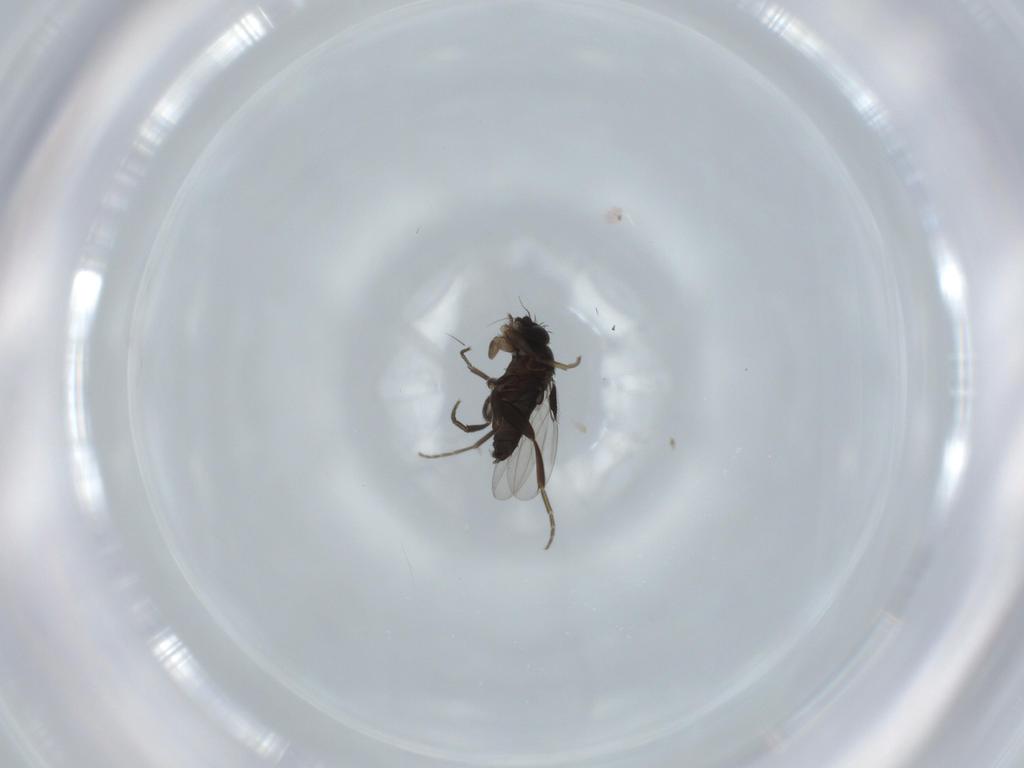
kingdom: Animalia
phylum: Arthropoda
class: Insecta
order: Diptera
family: Phoridae
